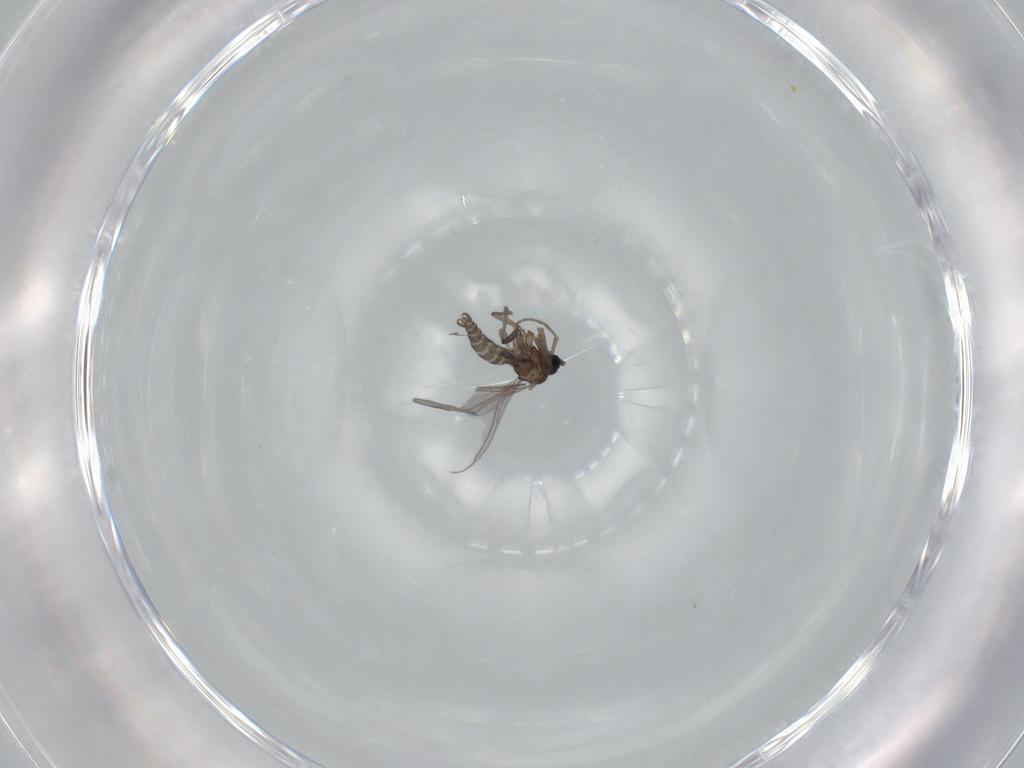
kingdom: Animalia
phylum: Arthropoda
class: Insecta
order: Diptera
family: Sciaridae
